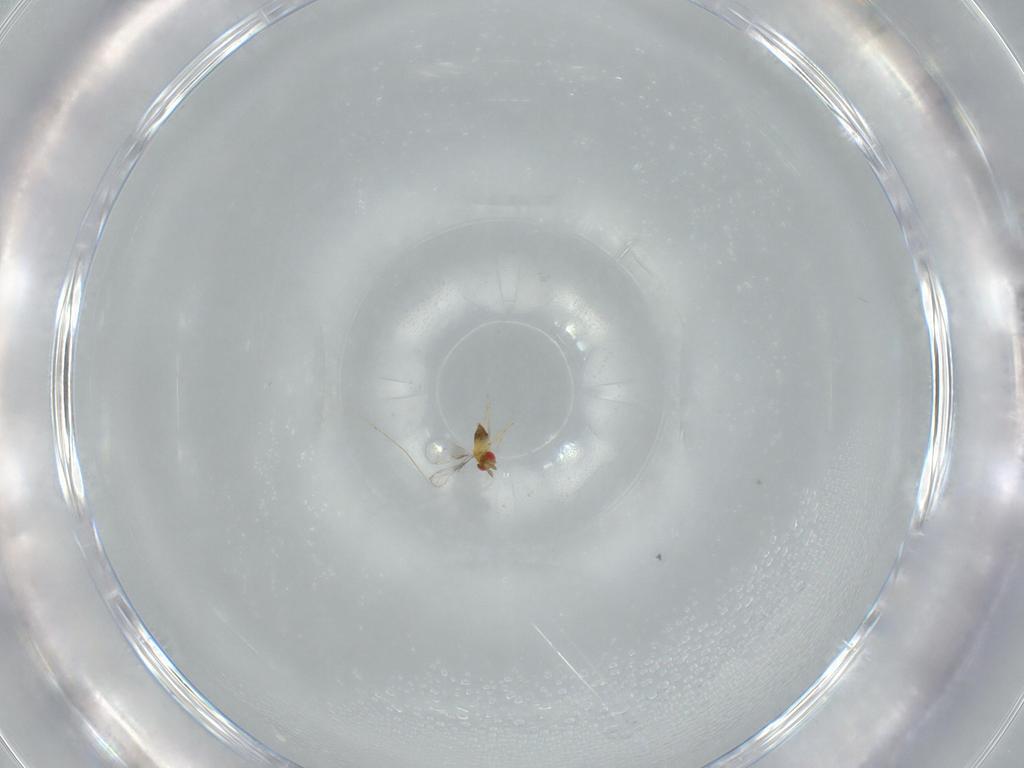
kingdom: Animalia
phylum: Arthropoda
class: Insecta
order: Hymenoptera
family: Trichogrammatidae
